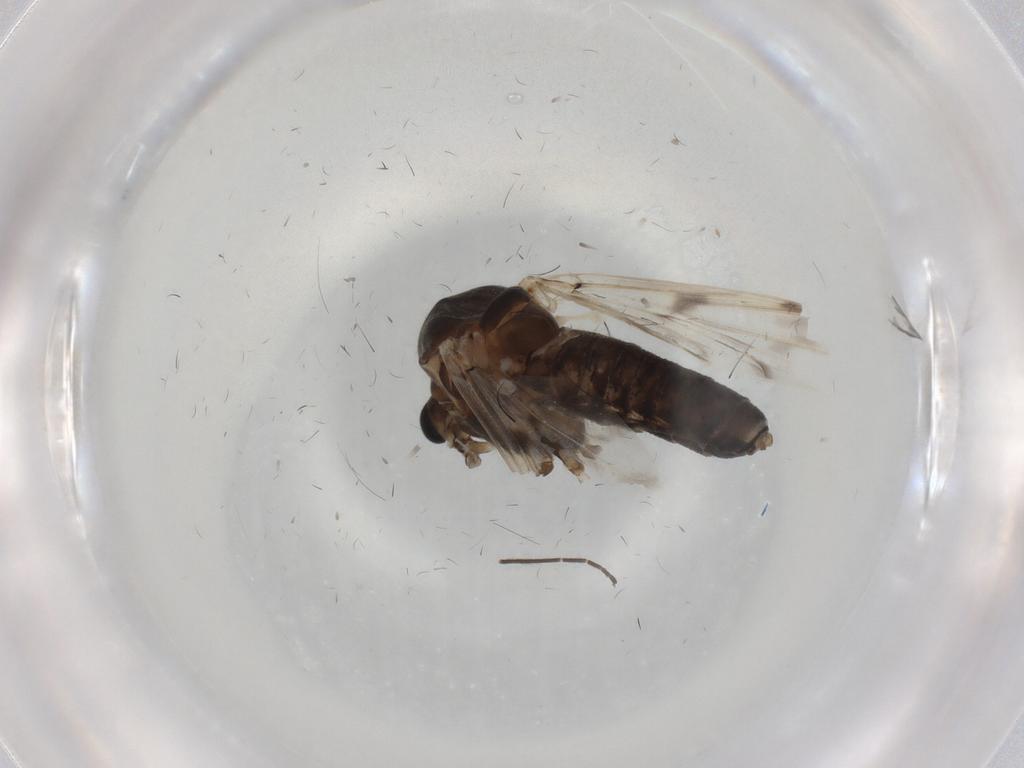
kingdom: Animalia
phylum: Arthropoda
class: Insecta
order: Diptera
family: Chironomidae
